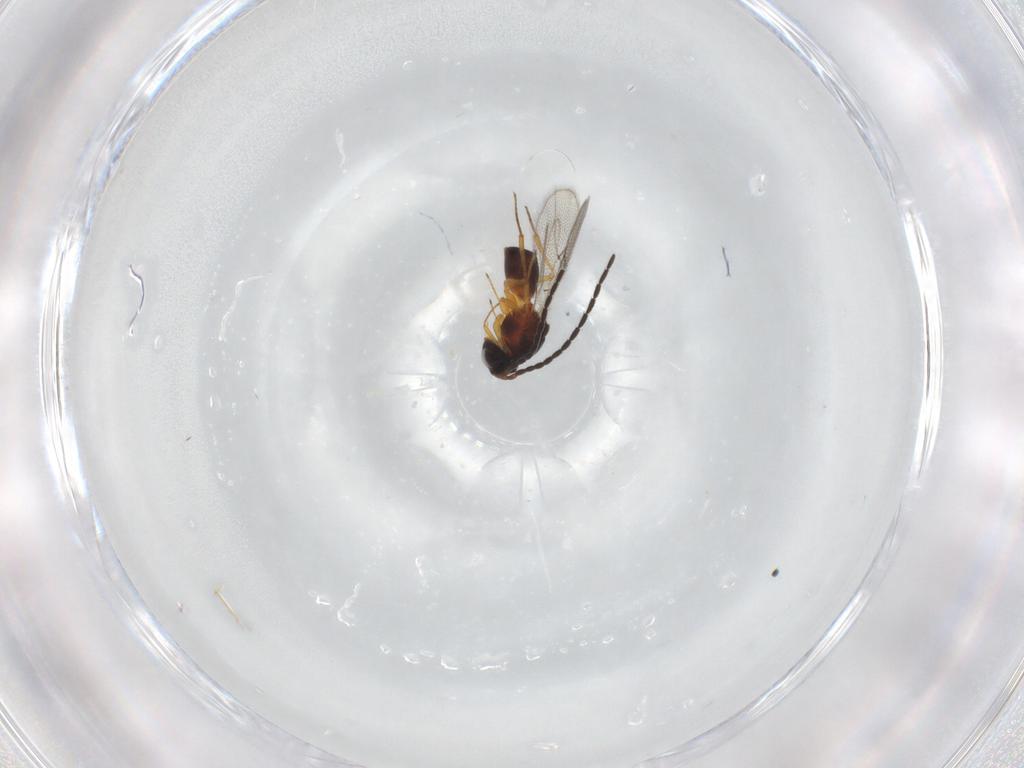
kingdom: Animalia
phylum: Arthropoda
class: Insecta
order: Hymenoptera
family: Figitidae
